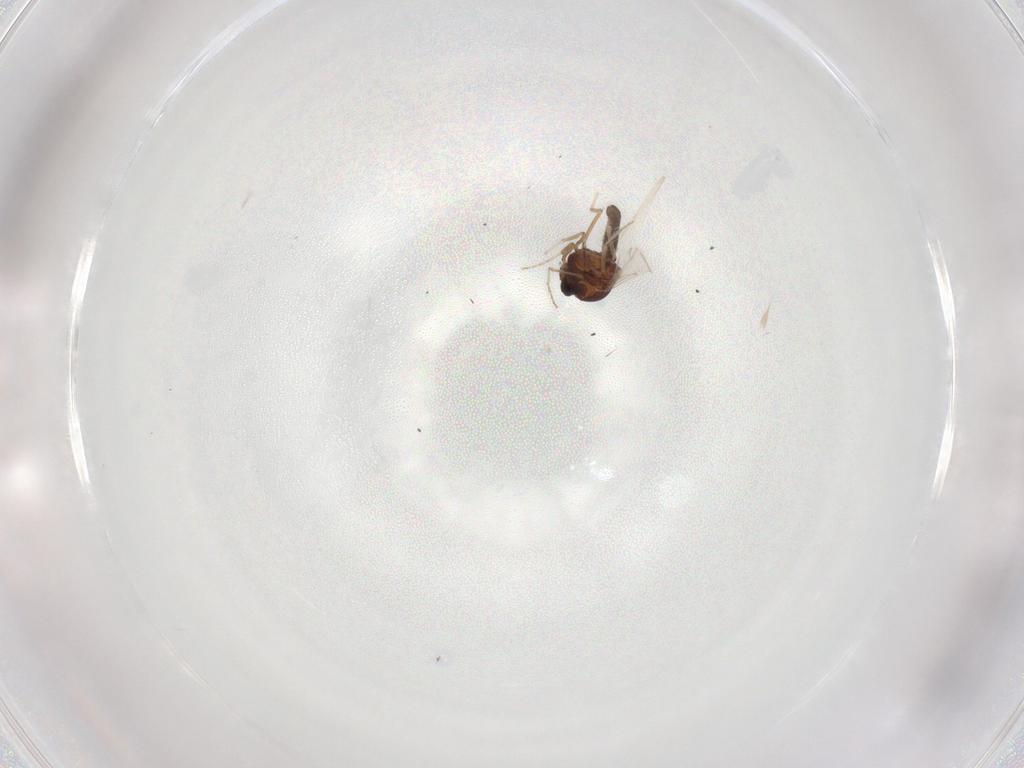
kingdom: Animalia
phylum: Arthropoda
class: Insecta
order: Diptera
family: Ceratopogonidae
